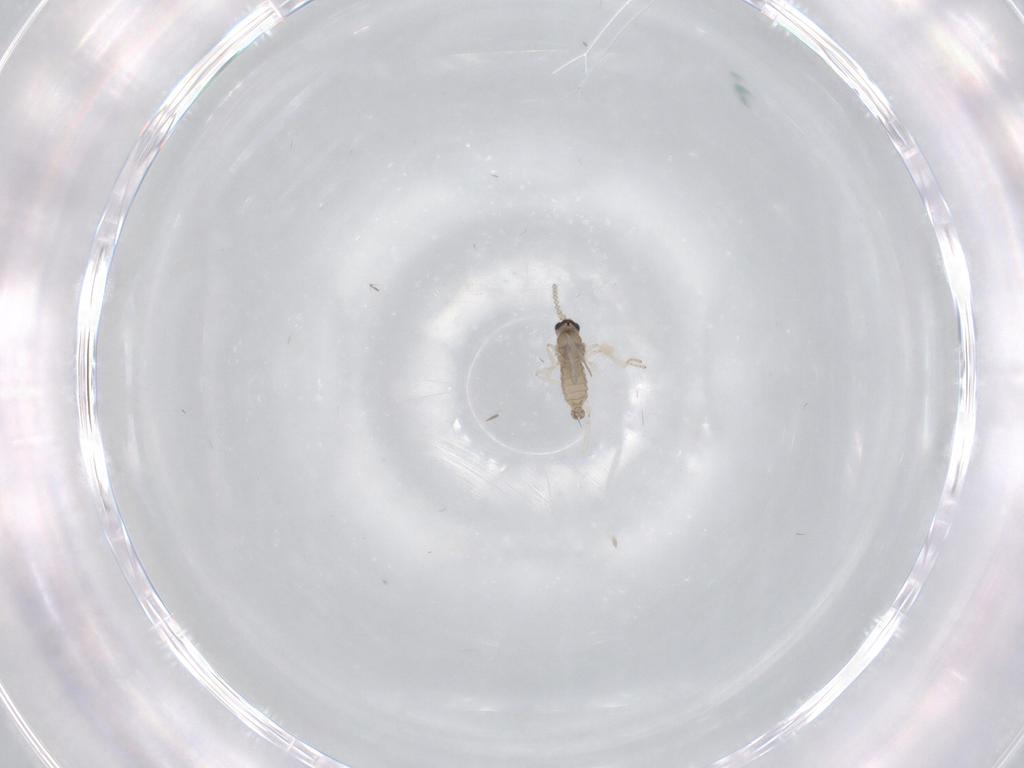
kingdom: Animalia
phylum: Arthropoda
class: Insecta
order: Diptera
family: Cecidomyiidae
